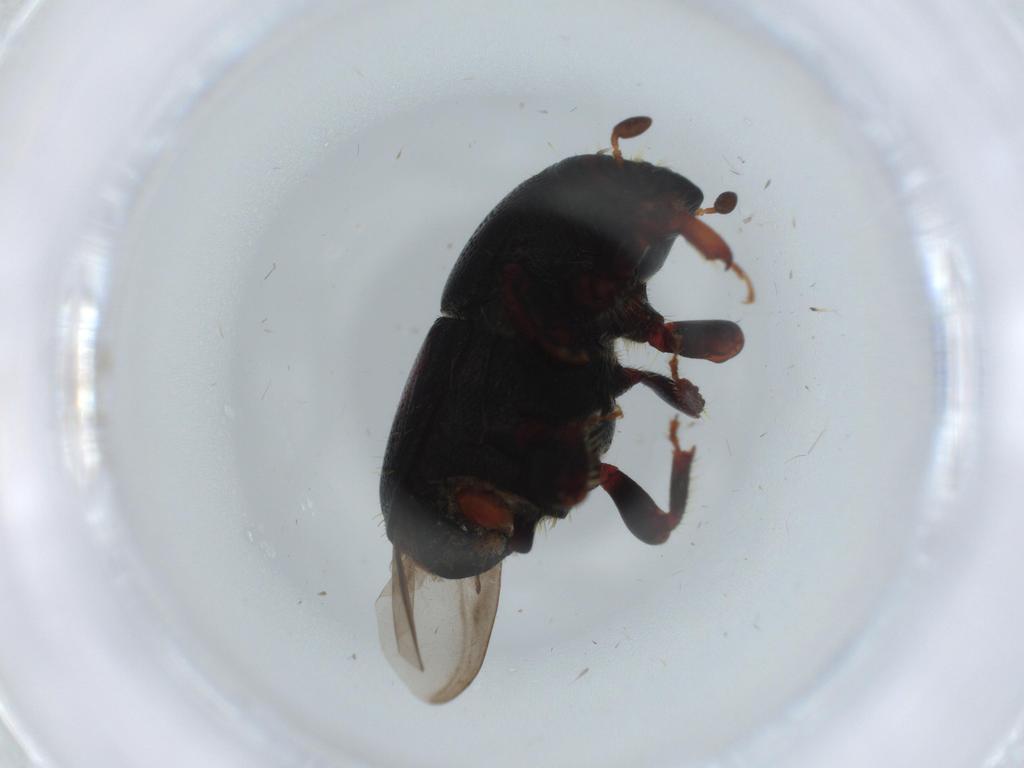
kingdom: Animalia
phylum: Arthropoda
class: Insecta
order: Coleoptera
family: Curculionidae
